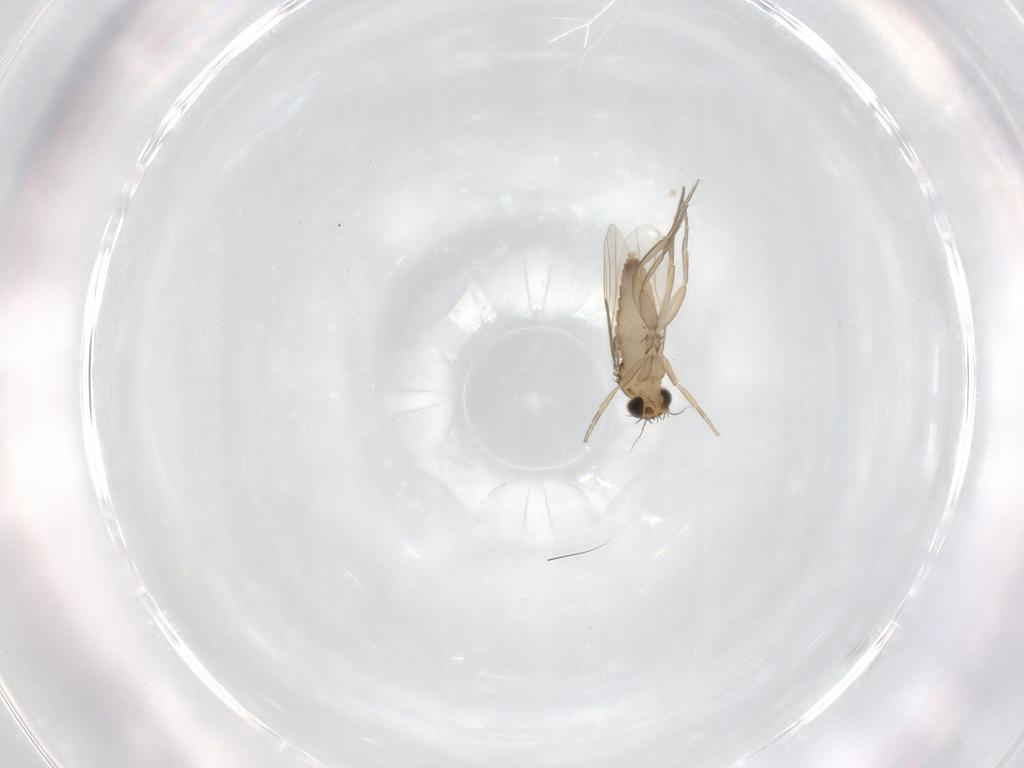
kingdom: Animalia
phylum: Arthropoda
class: Insecta
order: Diptera
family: Phoridae
